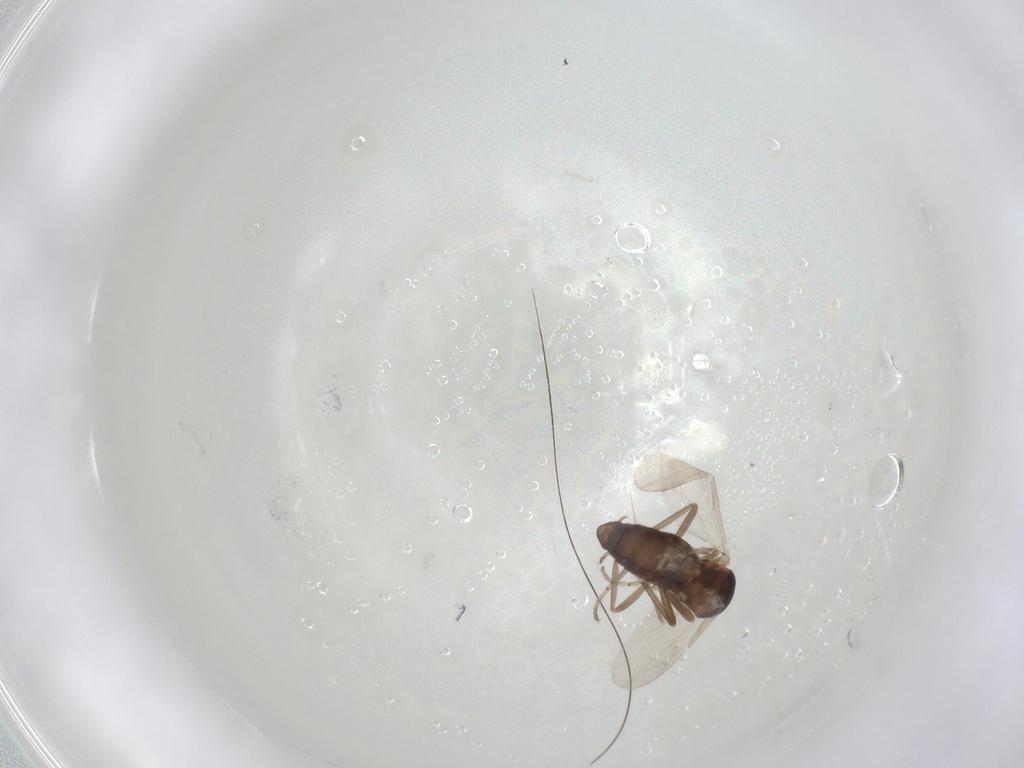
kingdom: Animalia
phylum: Arthropoda
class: Insecta
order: Diptera
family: Ceratopogonidae
